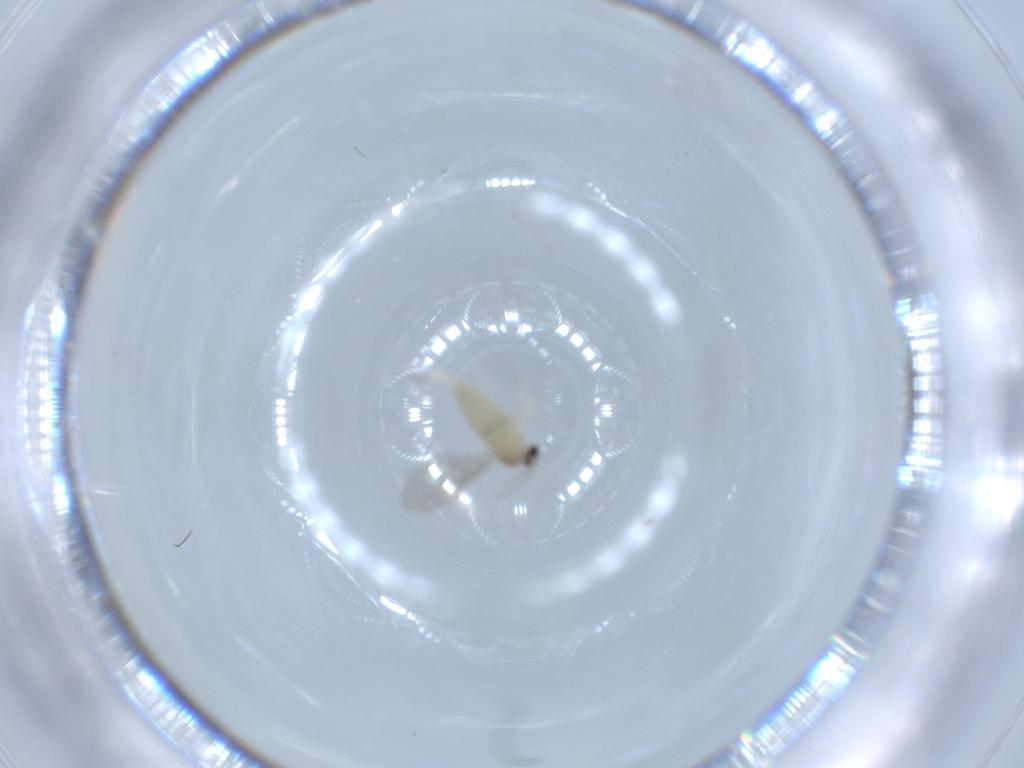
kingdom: Animalia
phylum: Arthropoda
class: Insecta
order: Diptera
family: Cecidomyiidae
